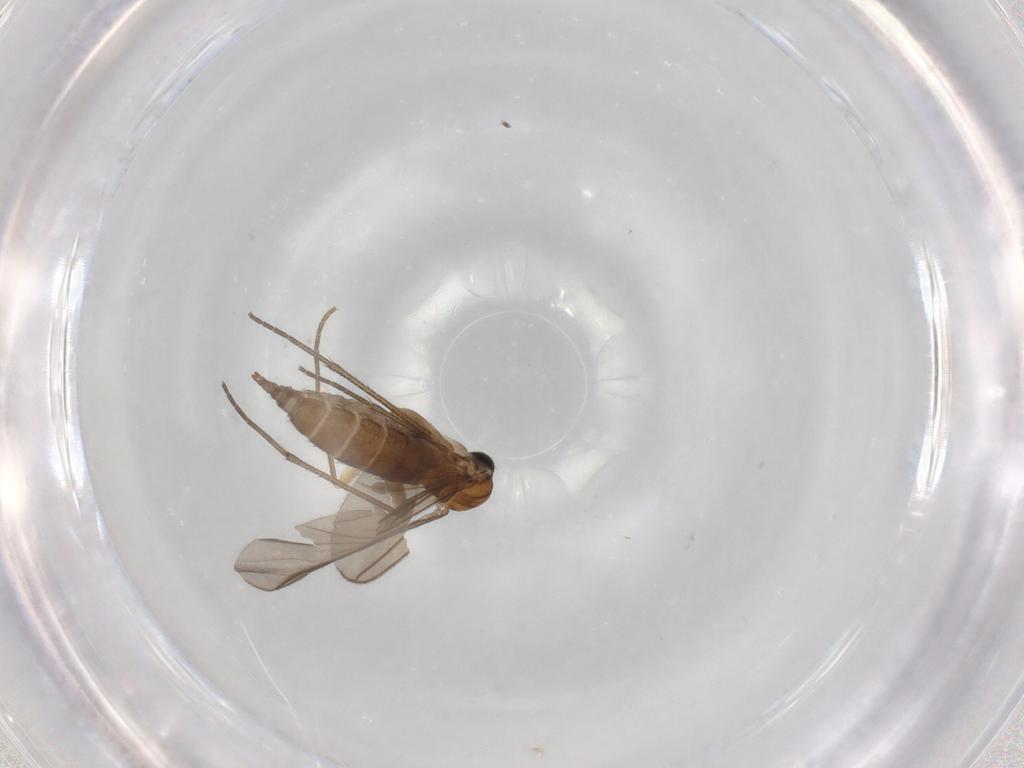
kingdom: Animalia
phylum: Arthropoda
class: Insecta
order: Diptera
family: Sciaridae
